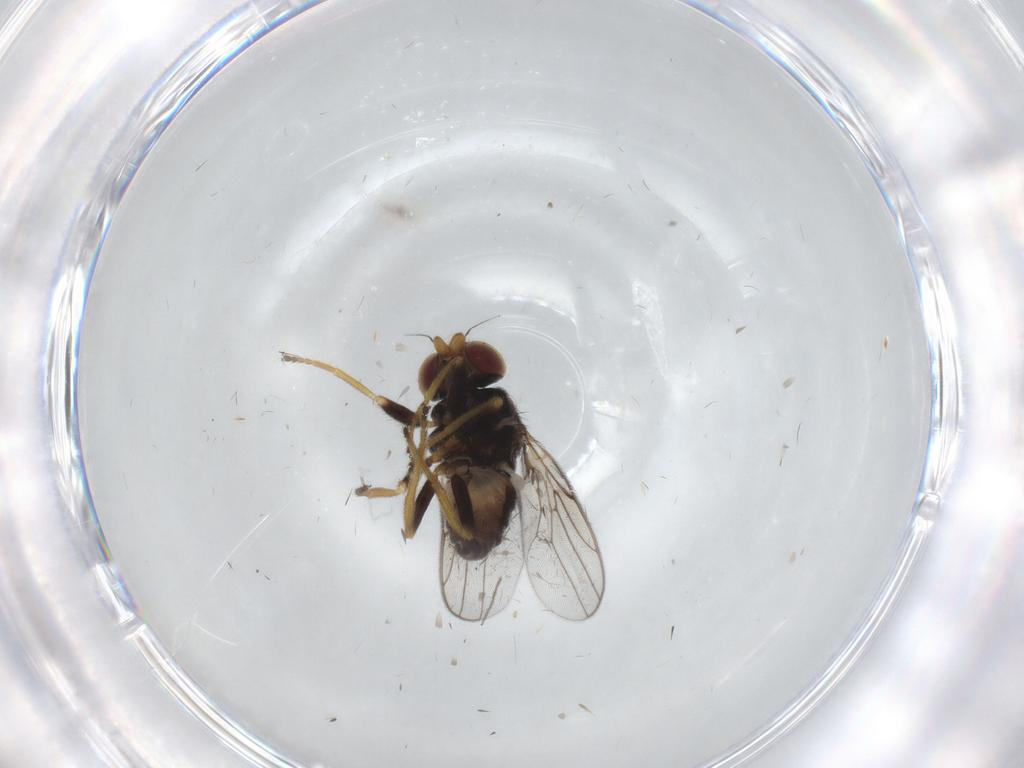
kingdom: Animalia
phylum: Arthropoda
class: Insecta
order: Diptera
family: Chloropidae
